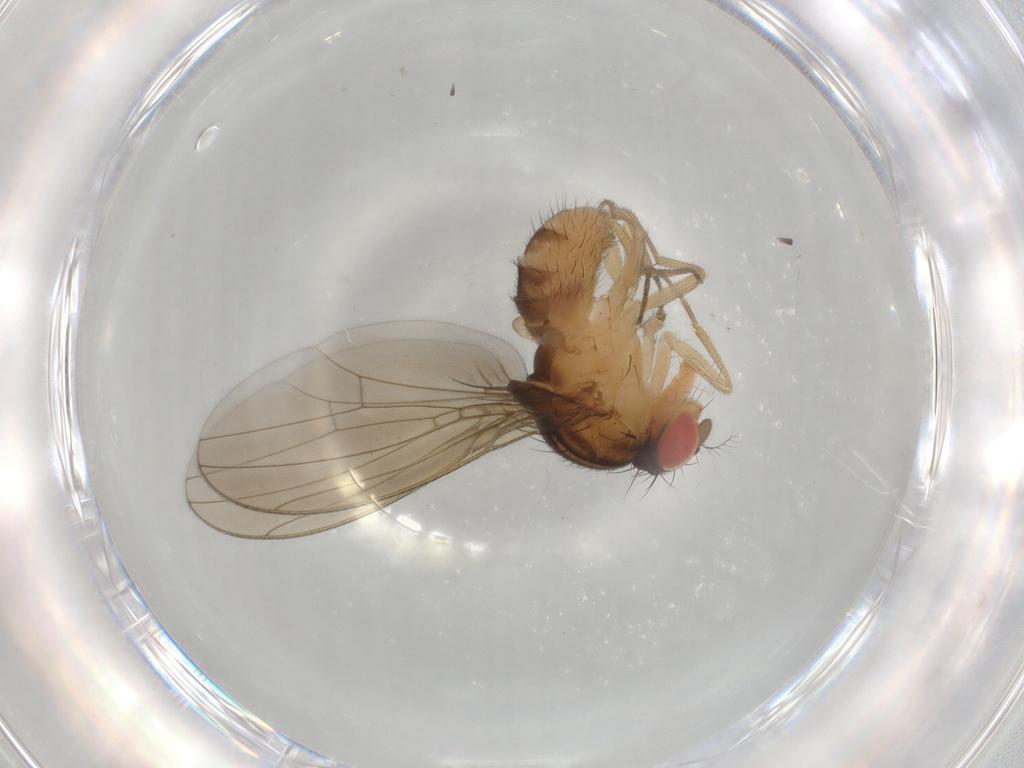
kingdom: Animalia
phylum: Arthropoda
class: Insecta
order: Diptera
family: Drosophilidae
